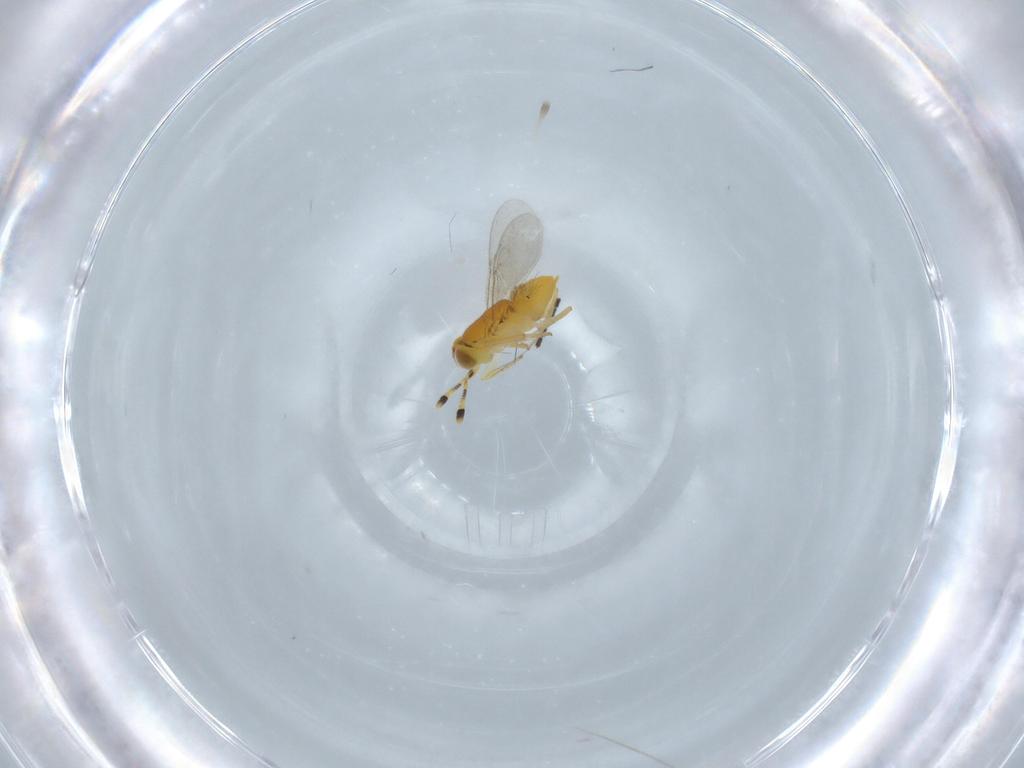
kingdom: Animalia
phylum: Arthropoda
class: Insecta
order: Hymenoptera
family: Encyrtidae
